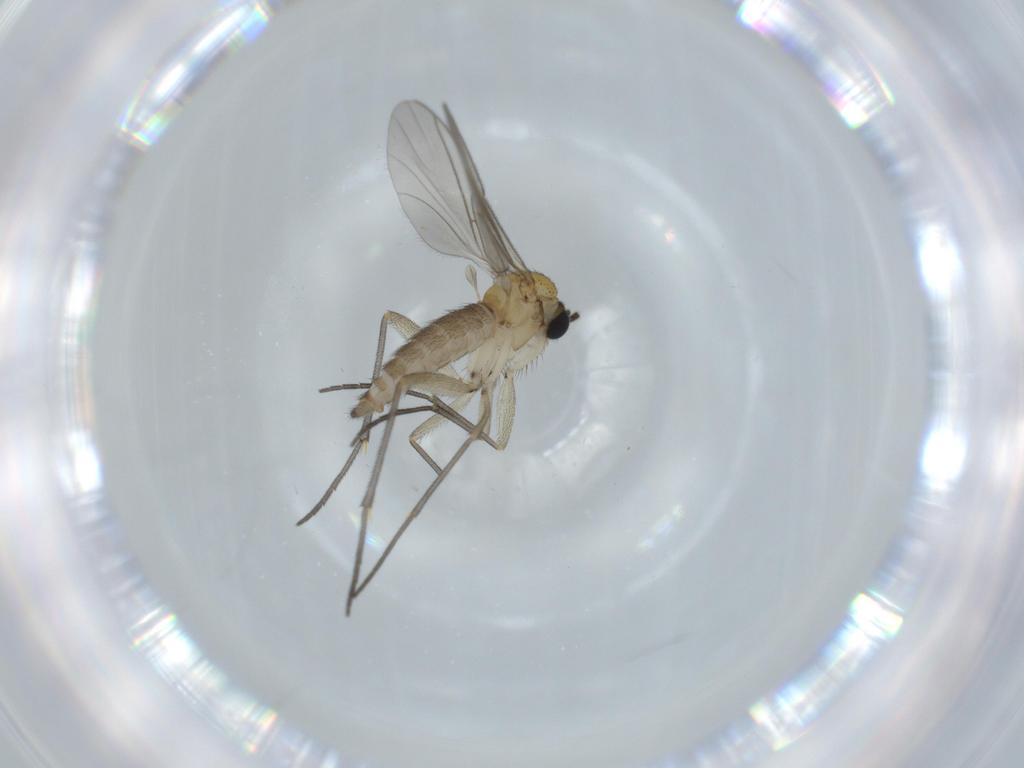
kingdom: Animalia
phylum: Arthropoda
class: Insecta
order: Diptera
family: Sciaridae
